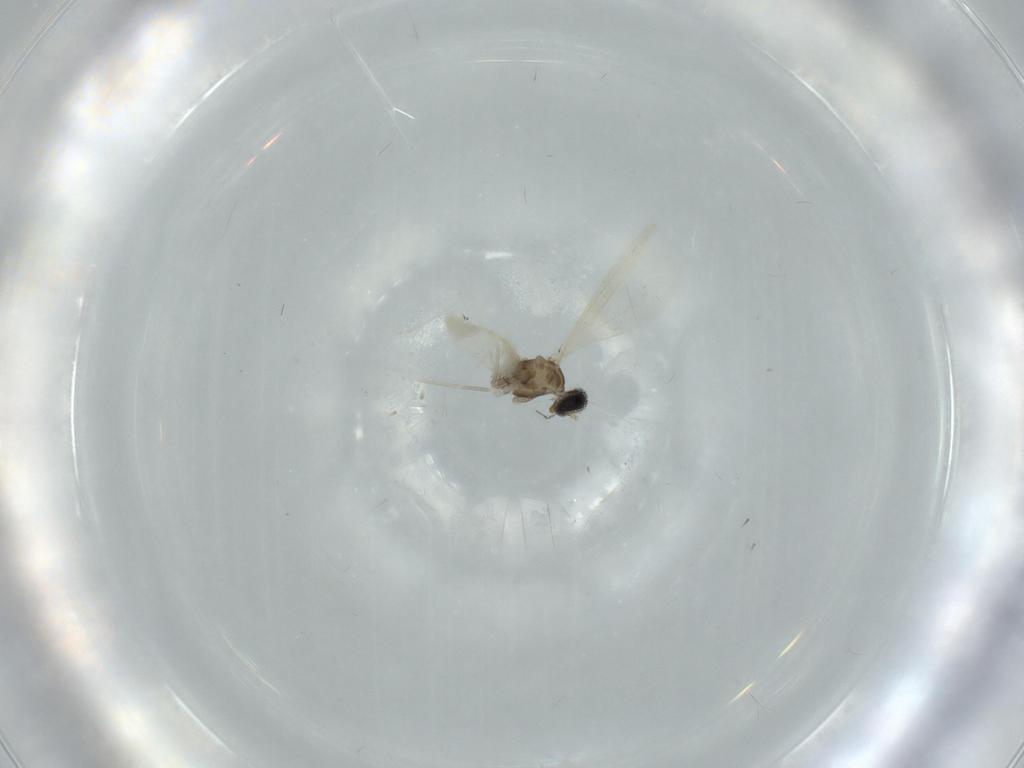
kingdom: Animalia
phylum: Arthropoda
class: Insecta
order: Diptera
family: Cecidomyiidae
